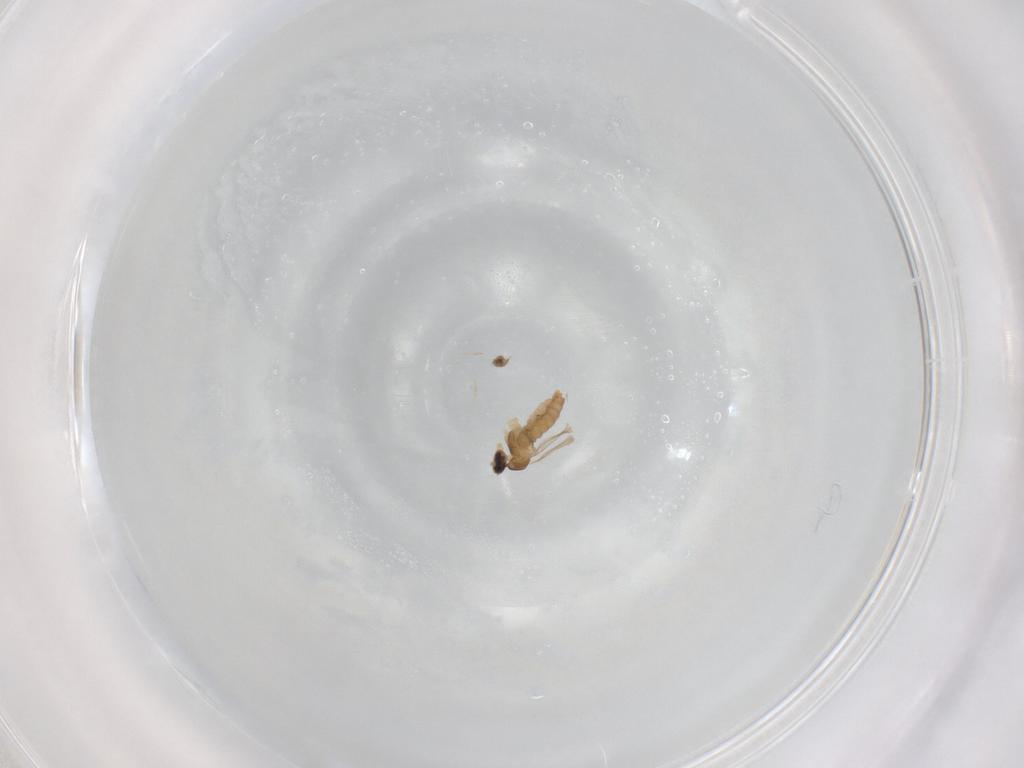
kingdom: Animalia
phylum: Arthropoda
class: Insecta
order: Diptera
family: Cecidomyiidae
